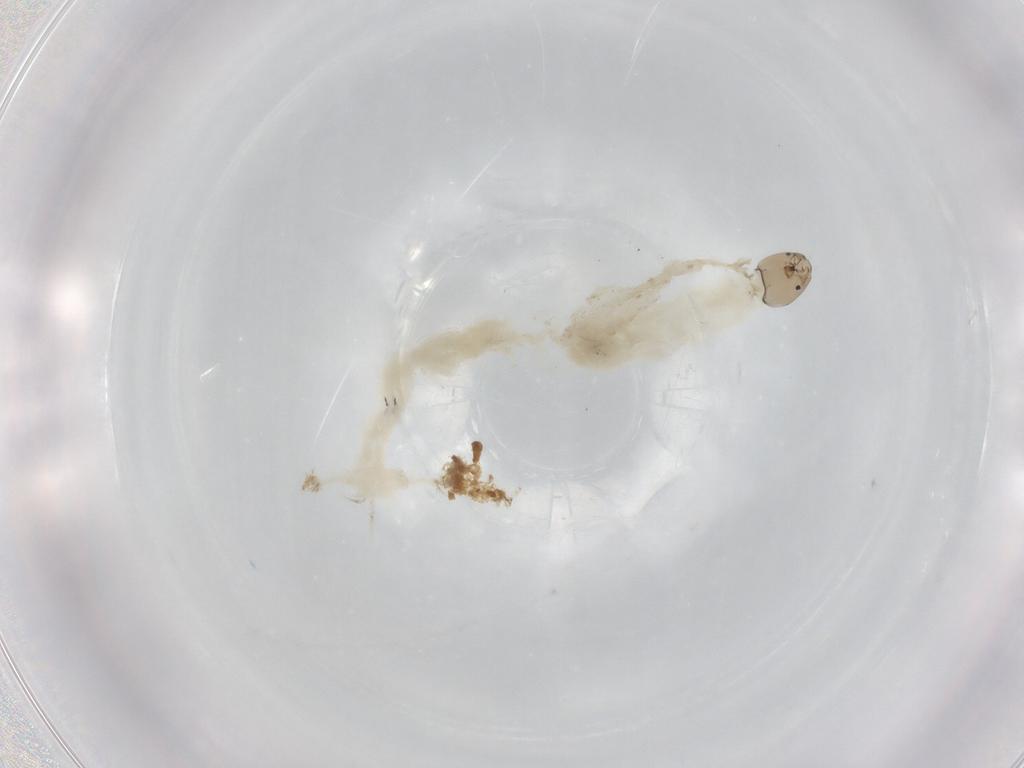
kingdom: Animalia
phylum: Arthropoda
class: Insecta
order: Diptera
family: Chironomidae
